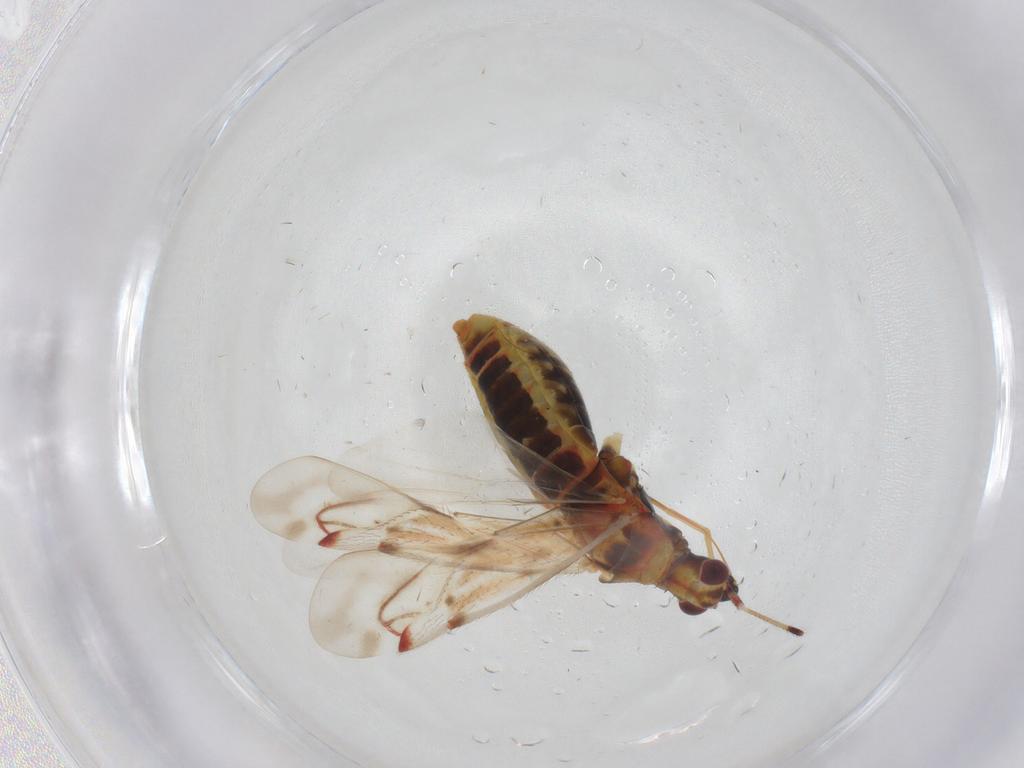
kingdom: Animalia
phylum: Arthropoda
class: Insecta
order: Hemiptera
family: Miridae
